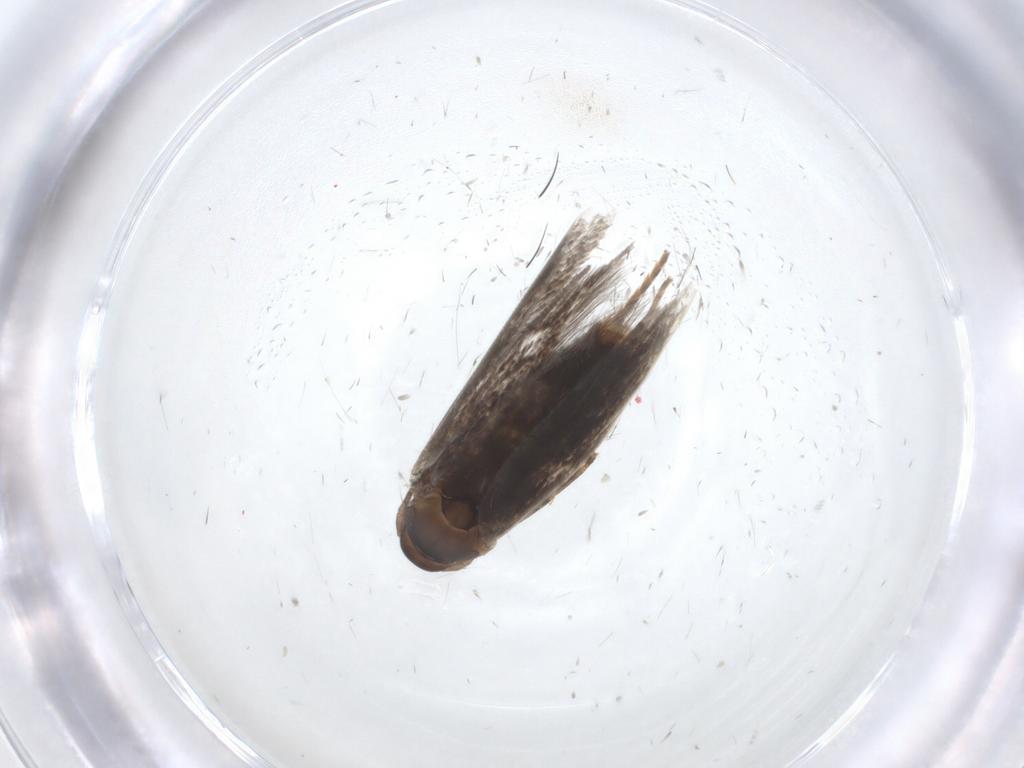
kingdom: Animalia
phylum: Arthropoda
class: Insecta
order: Lepidoptera
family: Elachistidae
